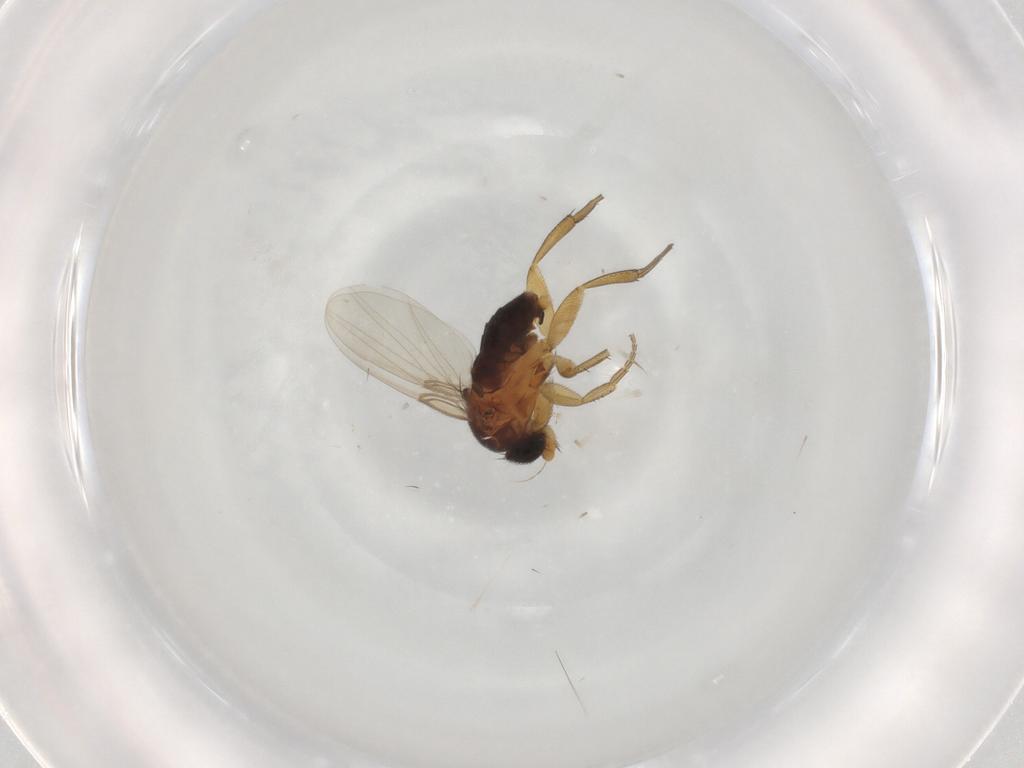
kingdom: Animalia
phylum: Arthropoda
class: Insecta
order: Diptera
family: Phoridae
